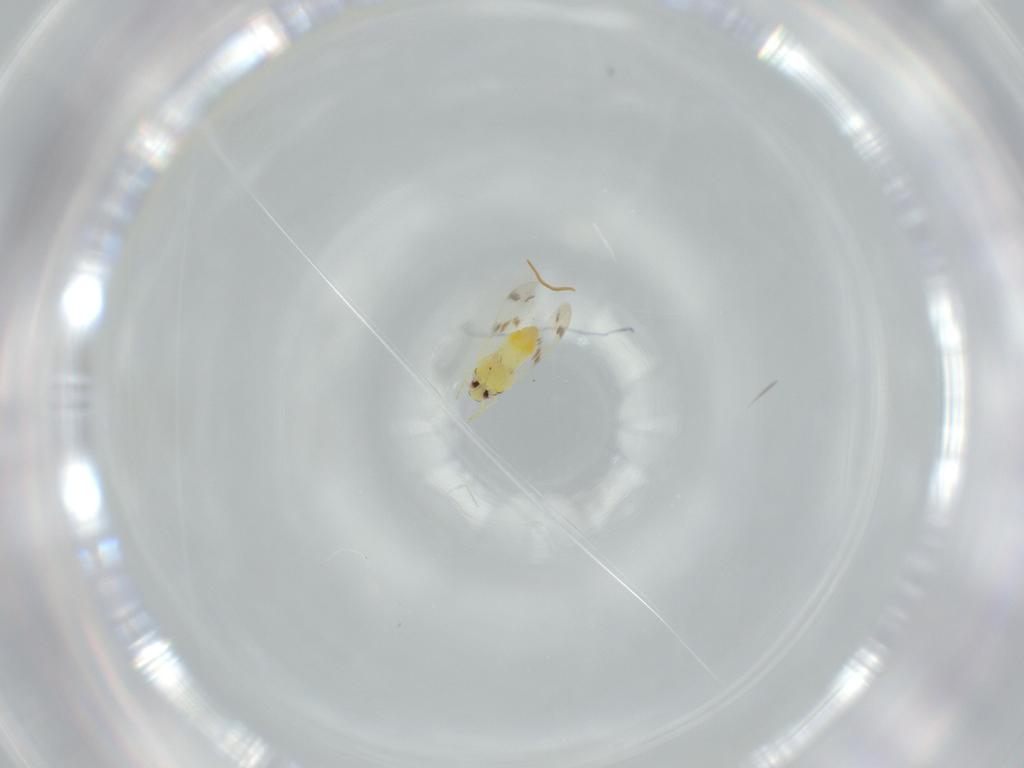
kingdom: Animalia
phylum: Arthropoda
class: Insecta
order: Hemiptera
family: Aleyrodidae
